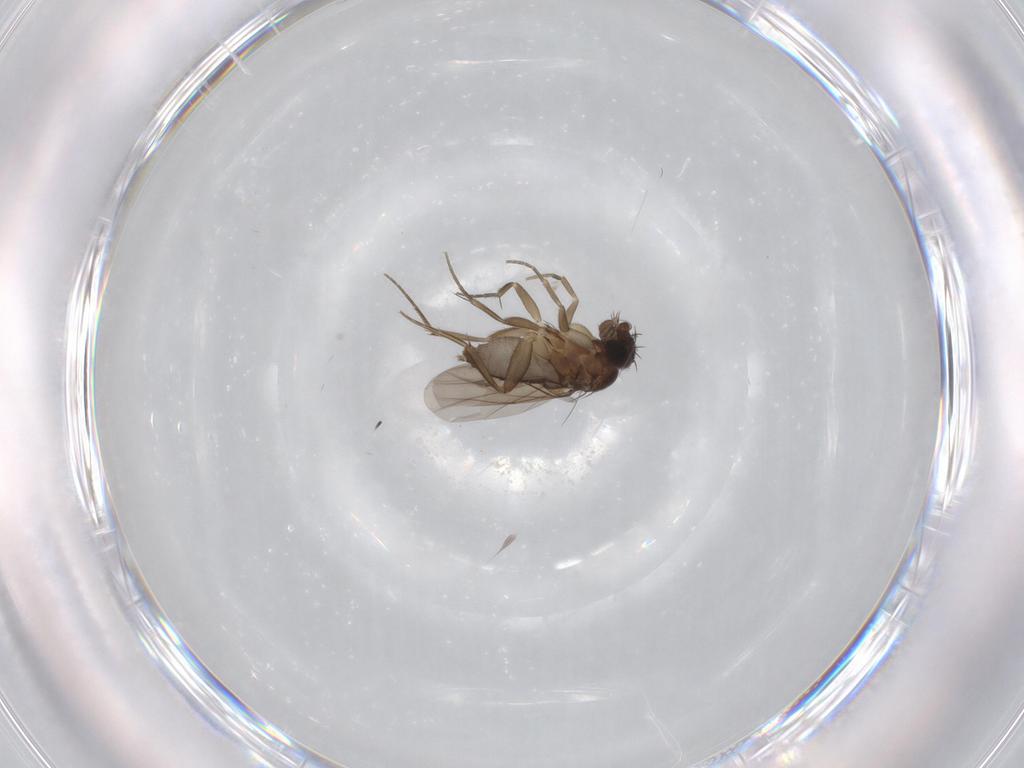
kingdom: Animalia
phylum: Arthropoda
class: Insecta
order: Diptera
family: Phoridae
